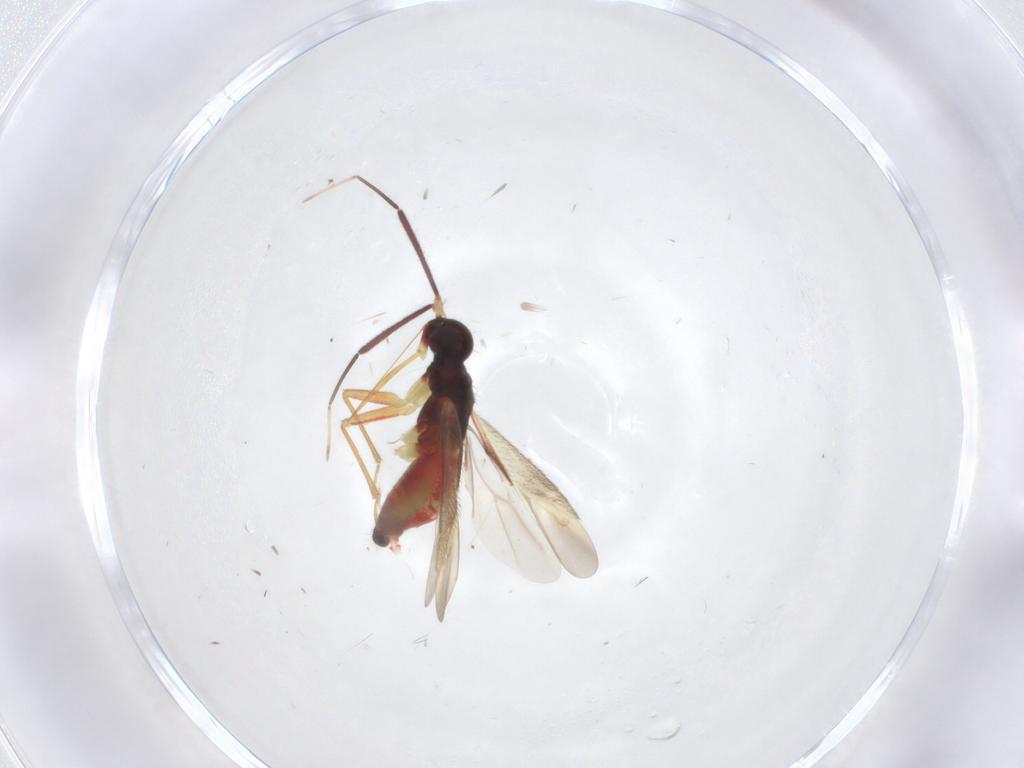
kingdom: Animalia
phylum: Arthropoda
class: Insecta
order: Hemiptera
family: Miridae
